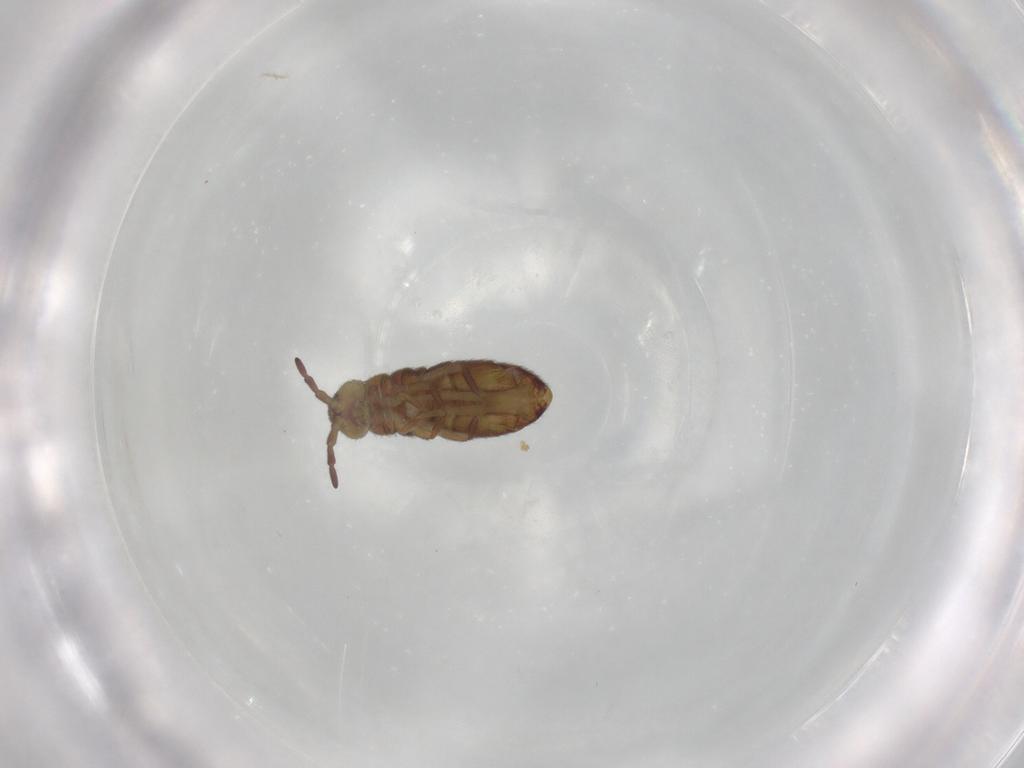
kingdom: Animalia
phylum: Arthropoda
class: Collembola
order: Entomobryomorpha
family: Isotomidae
